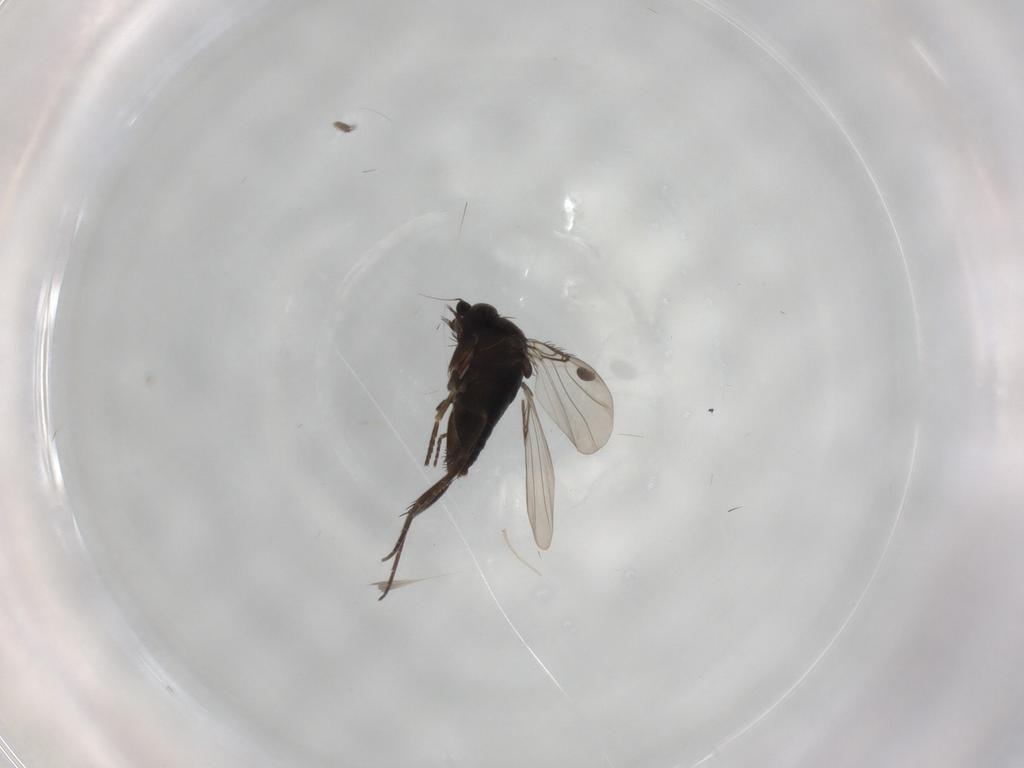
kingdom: Animalia
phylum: Arthropoda
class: Insecta
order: Diptera
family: Phoridae
